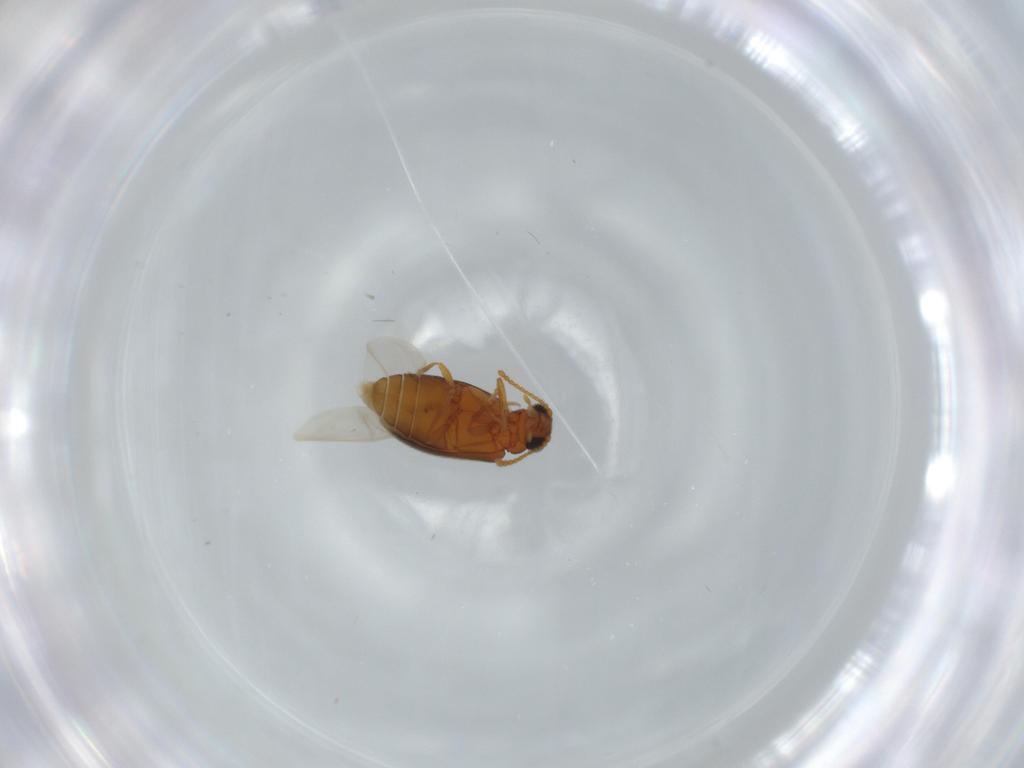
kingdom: Animalia
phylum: Arthropoda
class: Insecta
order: Coleoptera
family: Aderidae
